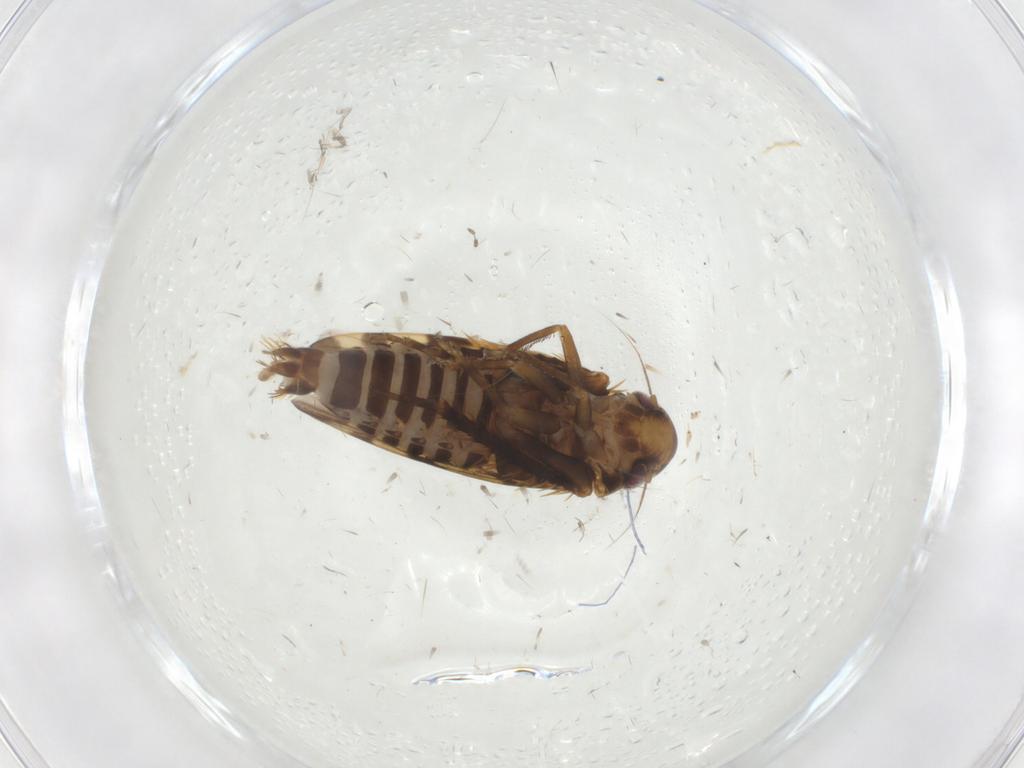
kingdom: Animalia
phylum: Arthropoda
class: Insecta
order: Hemiptera
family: Cicadellidae
